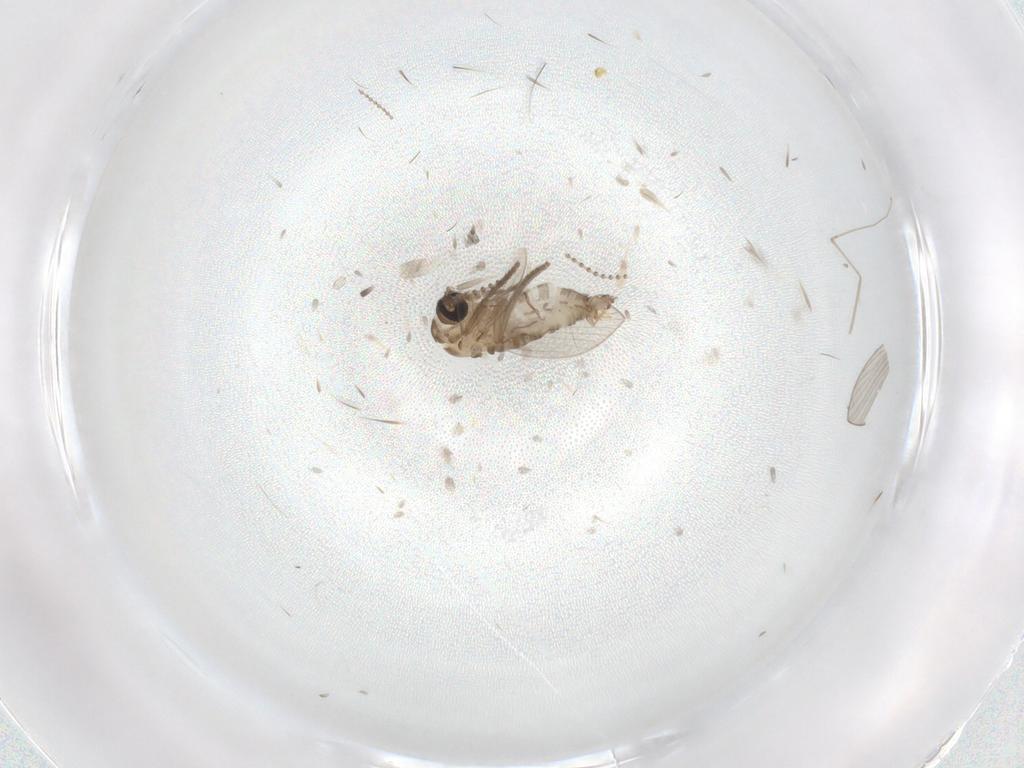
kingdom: Animalia
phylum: Arthropoda
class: Insecta
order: Diptera
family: Psychodidae
